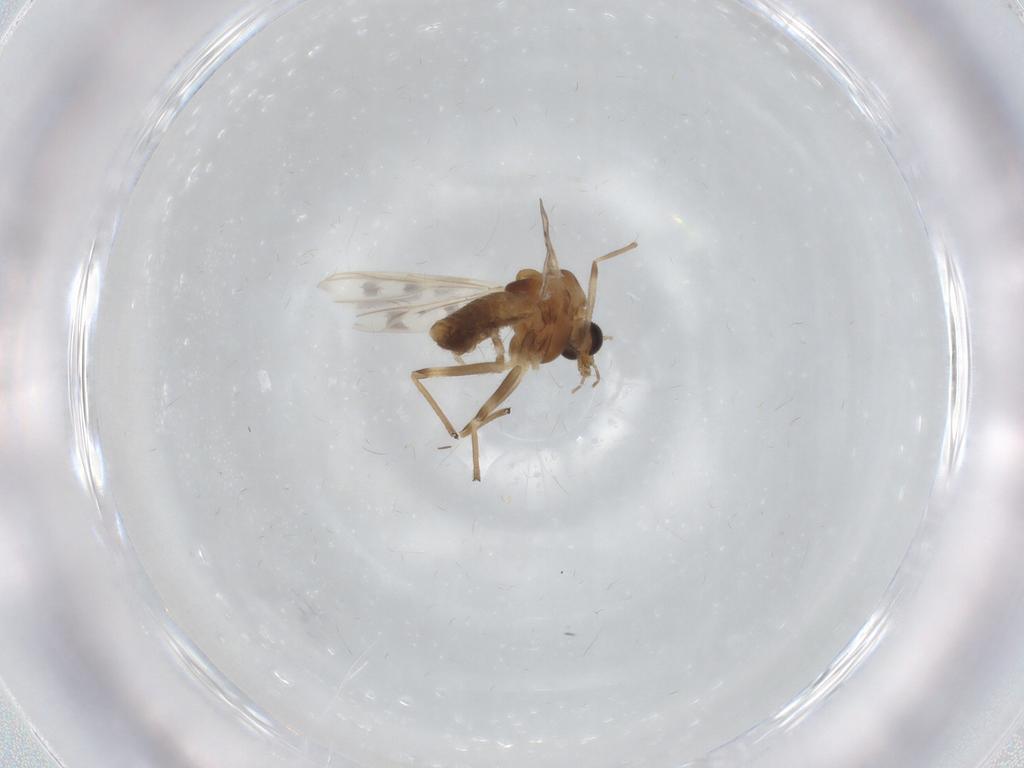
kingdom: Animalia
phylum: Arthropoda
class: Insecta
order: Diptera
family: Chironomidae
